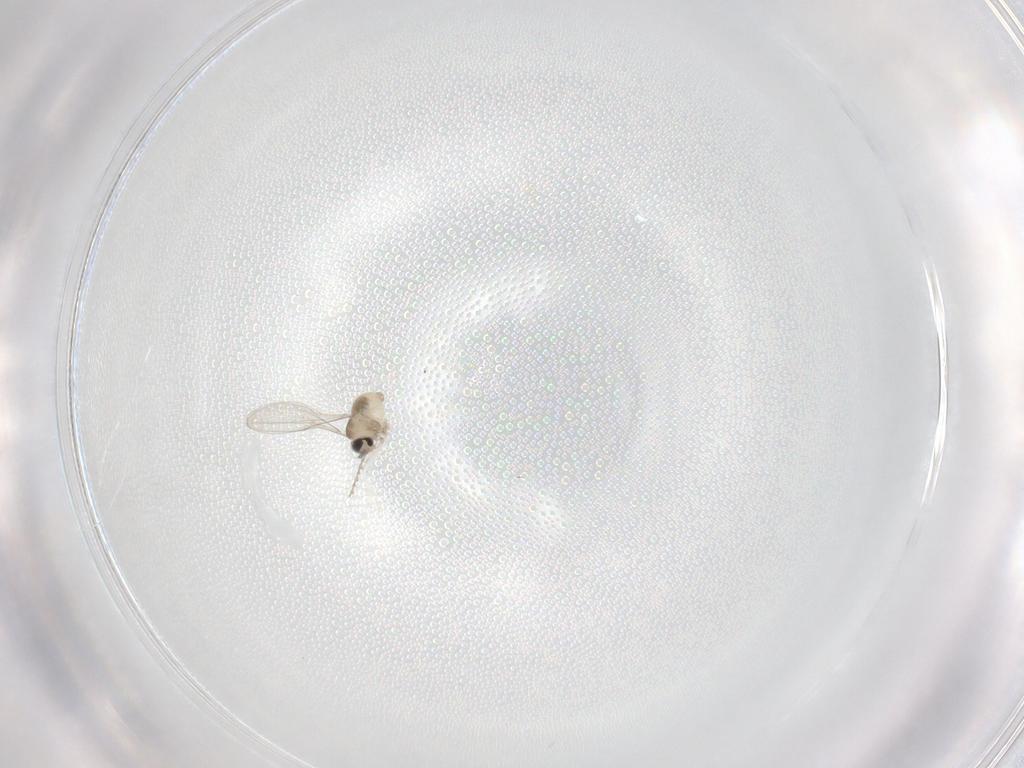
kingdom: Animalia
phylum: Arthropoda
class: Insecta
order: Diptera
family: Cecidomyiidae
